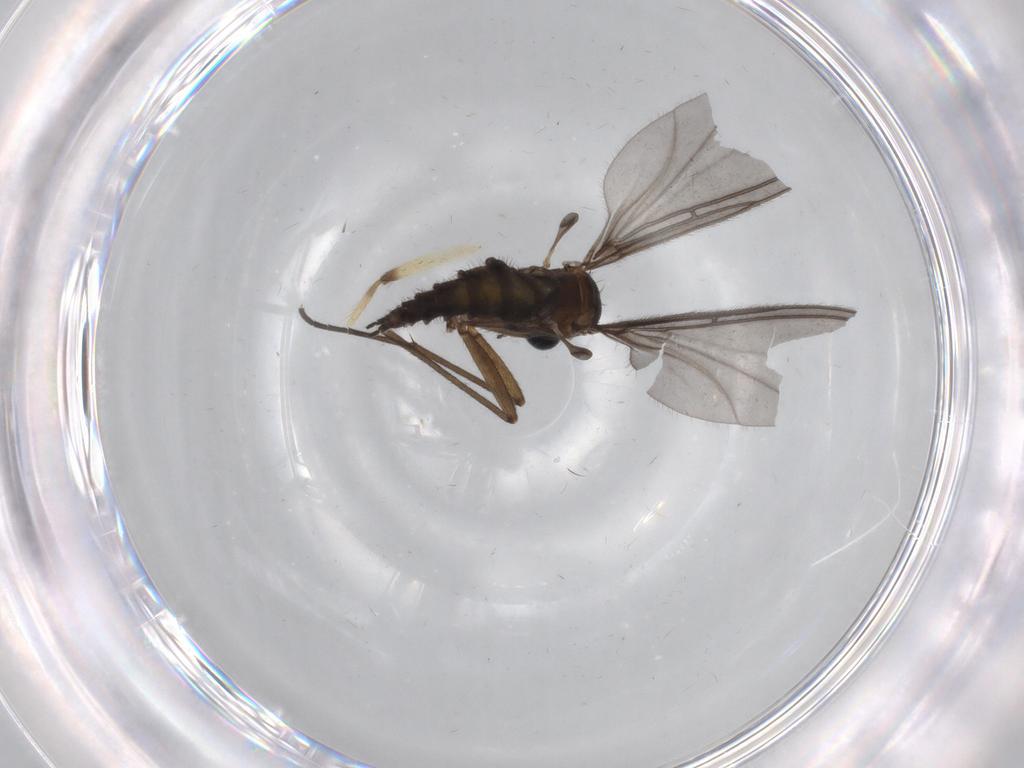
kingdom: Animalia
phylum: Arthropoda
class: Insecta
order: Diptera
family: Sciaridae
